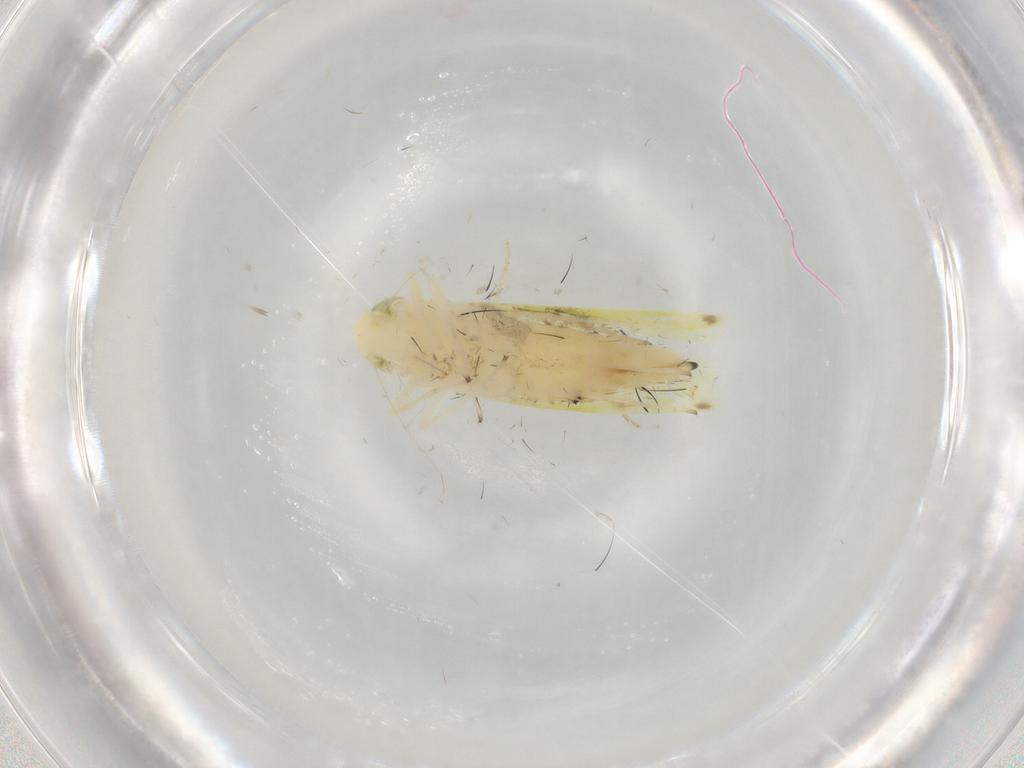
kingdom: Animalia
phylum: Arthropoda
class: Insecta
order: Hemiptera
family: Cicadellidae
